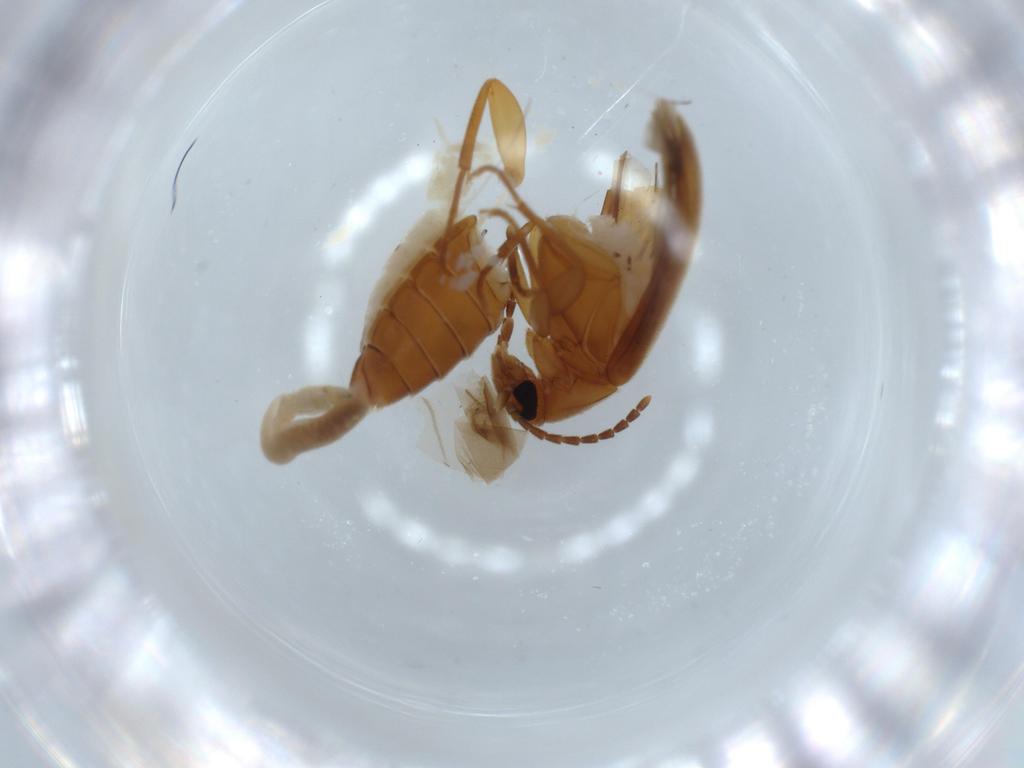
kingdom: Animalia
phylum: Arthropoda
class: Insecta
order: Coleoptera
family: Scraptiidae
